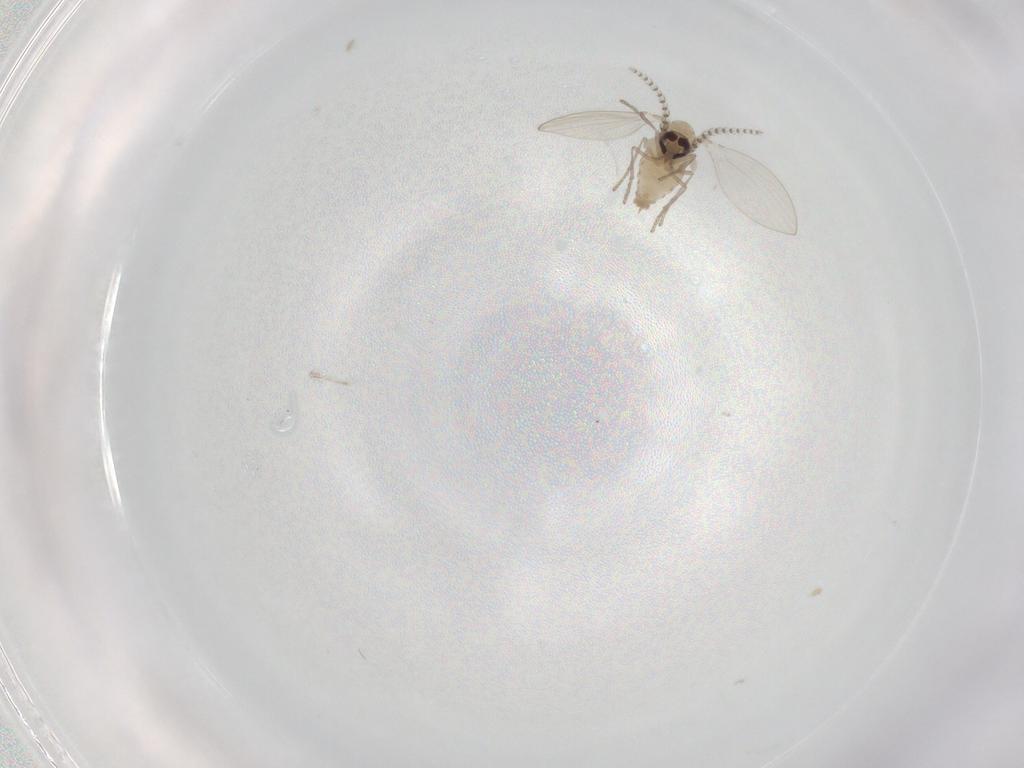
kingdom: Animalia
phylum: Arthropoda
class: Insecta
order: Diptera
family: Psychodidae
